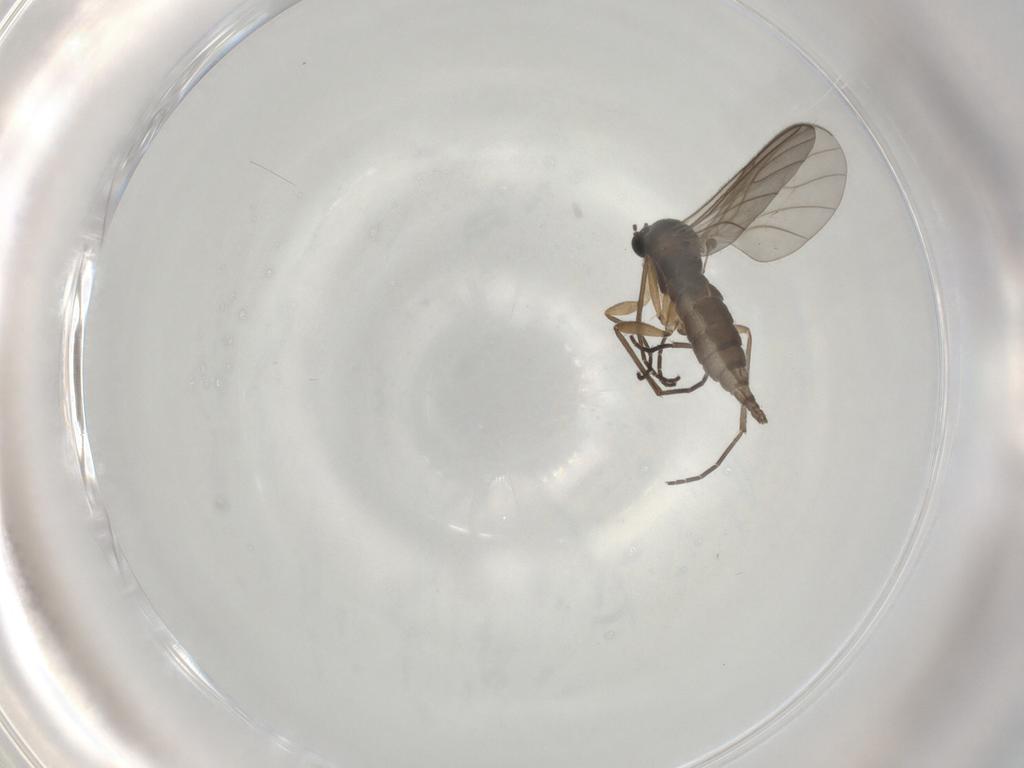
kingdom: Animalia
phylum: Arthropoda
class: Insecta
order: Diptera
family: Sciaridae
